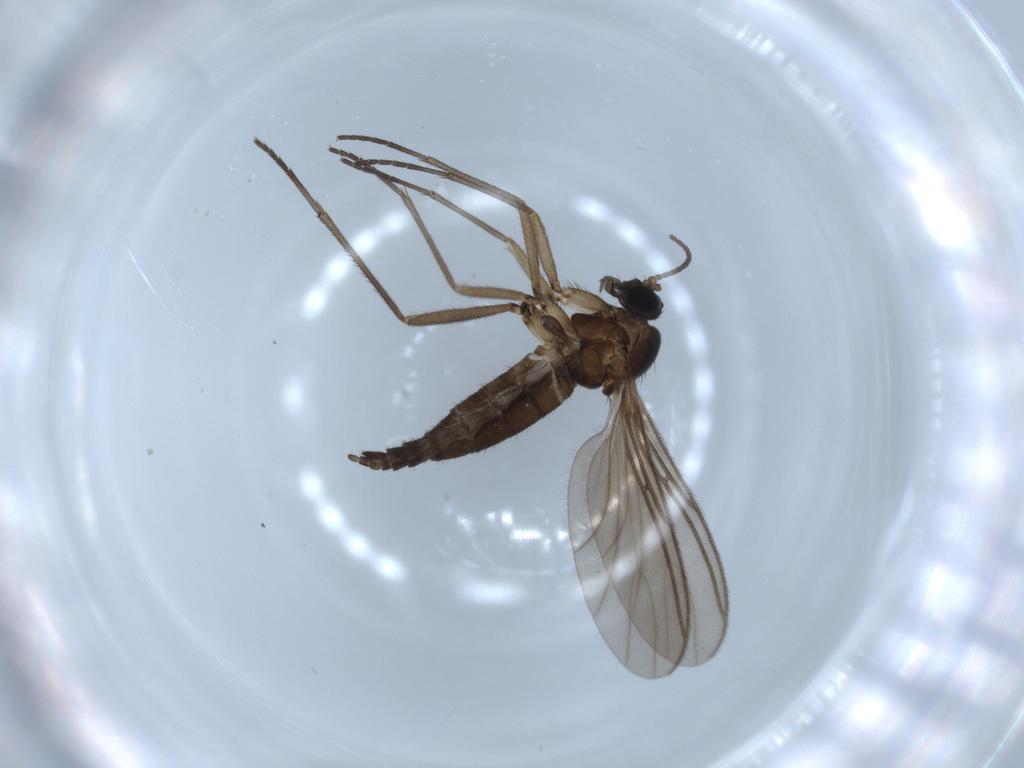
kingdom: Animalia
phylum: Arthropoda
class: Insecta
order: Diptera
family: Sciaridae
